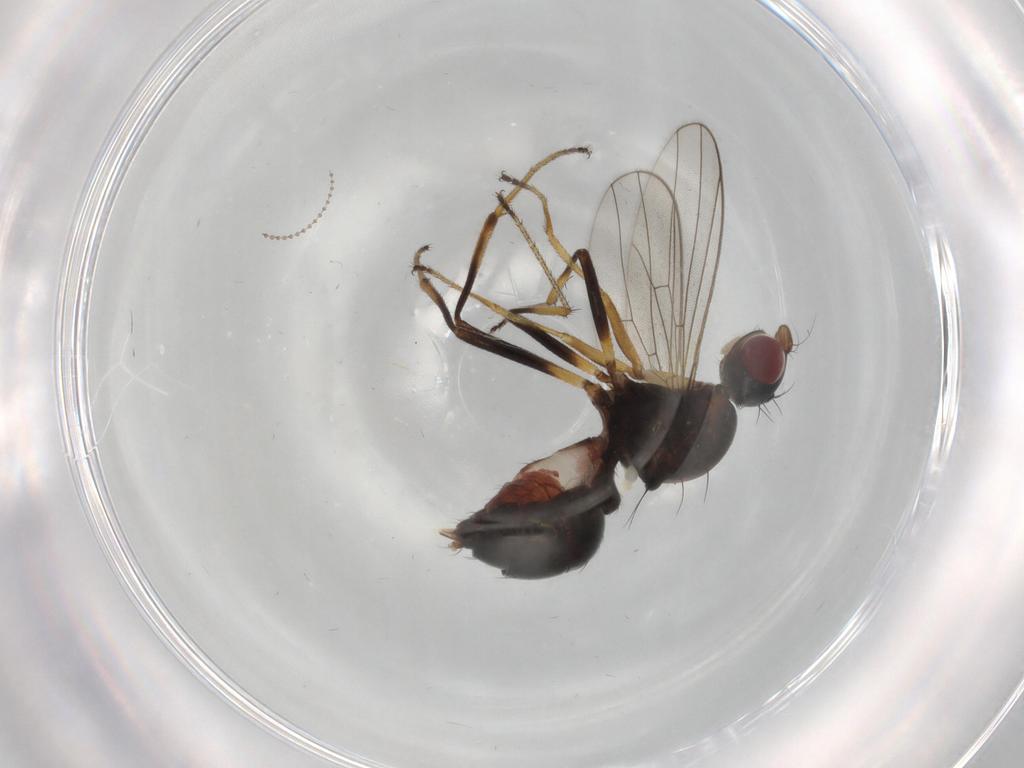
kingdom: Animalia
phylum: Arthropoda
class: Insecta
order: Diptera
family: Sepsidae
